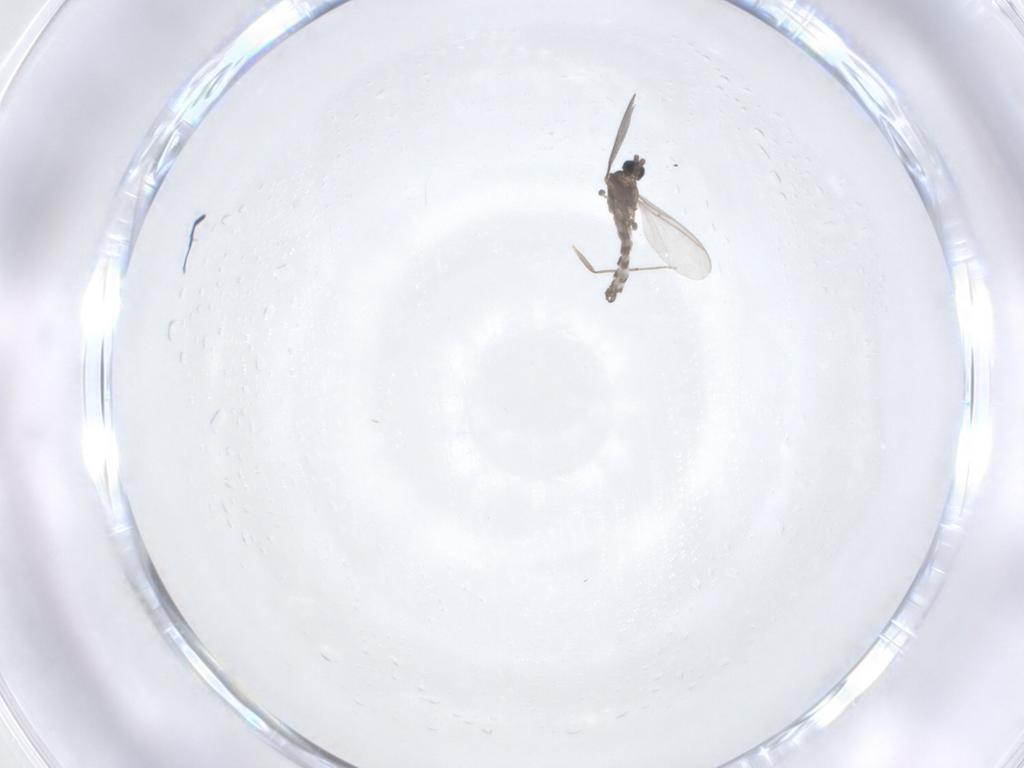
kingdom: Animalia
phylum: Arthropoda
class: Insecta
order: Diptera
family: Sciaridae
